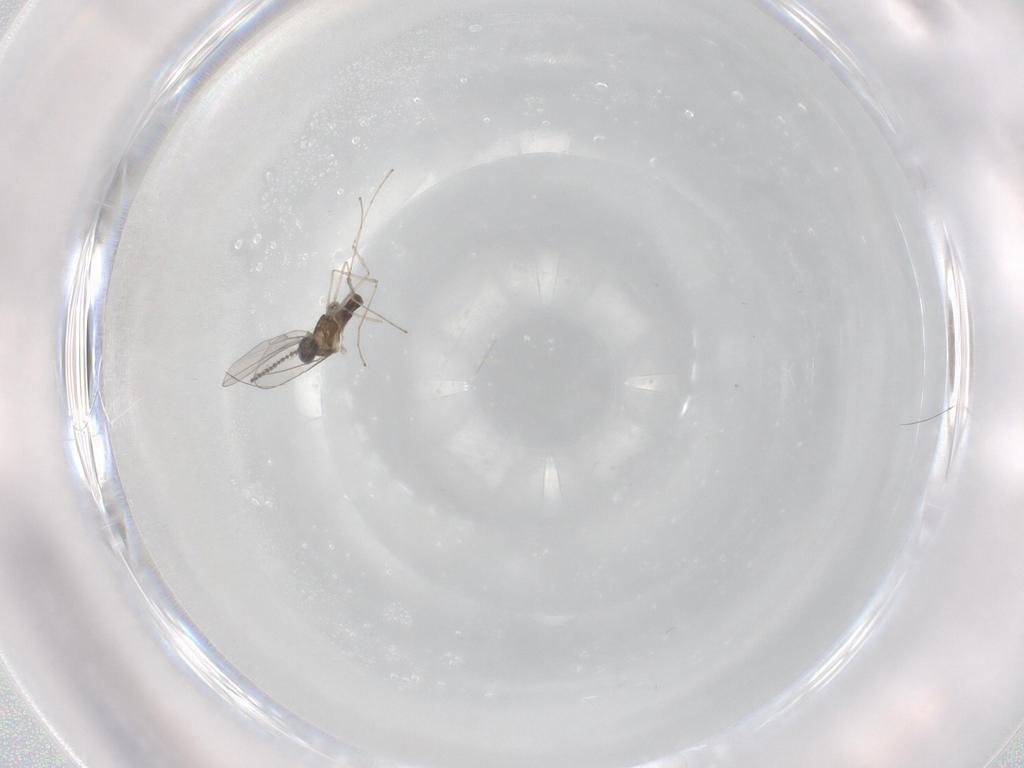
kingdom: Animalia
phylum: Arthropoda
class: Insecta
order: Diptera
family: Cecidomyiidae
